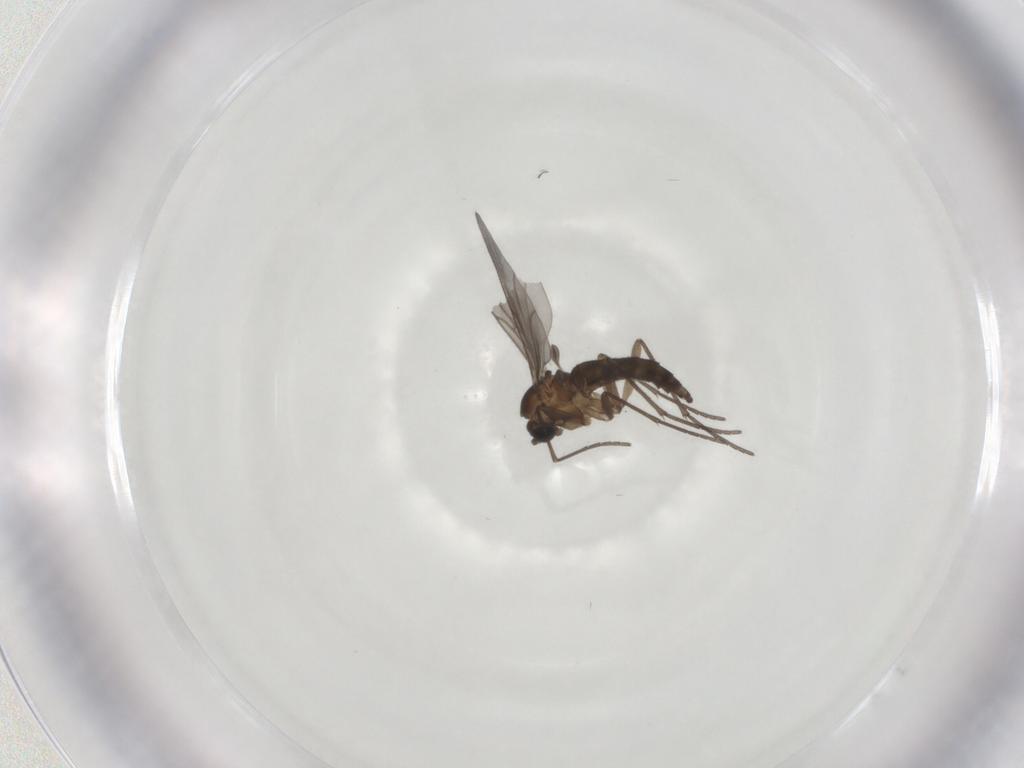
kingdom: Animalia
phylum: Arthropoda
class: Insecta
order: Diptera
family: Sciaridae
